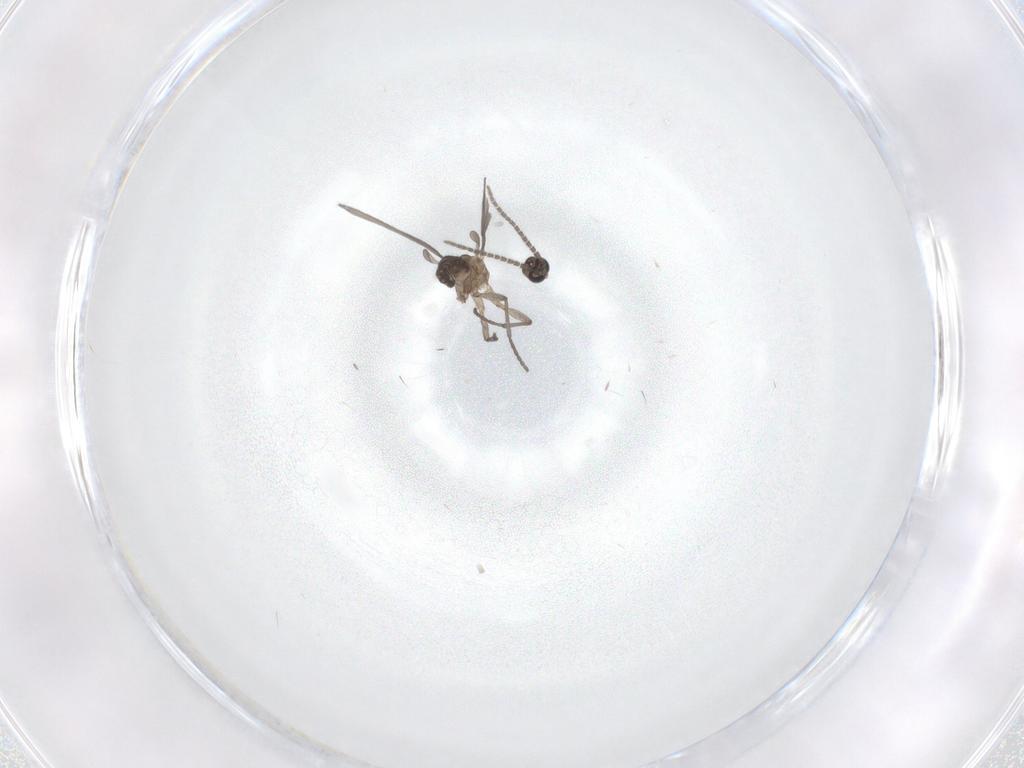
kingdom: Animalia
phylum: Arthropoda
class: Insecta
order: Diptera
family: Sciaridae
